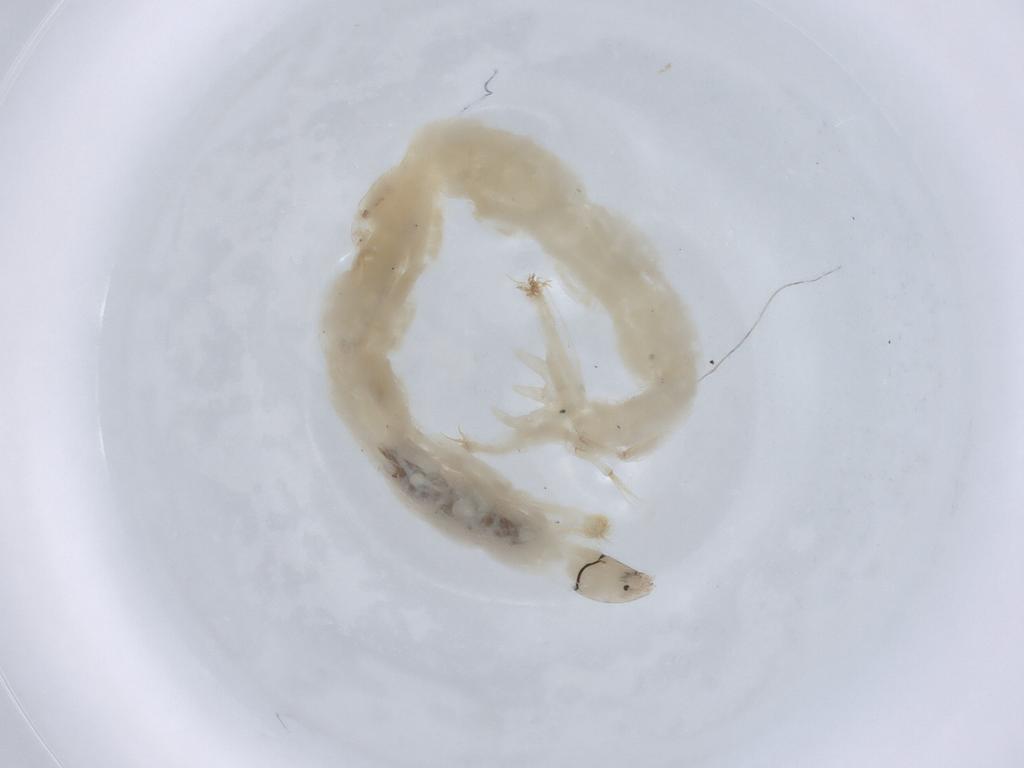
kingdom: Animalia
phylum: Arthropoda
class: Insecta
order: Diptera
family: Chironomidae
